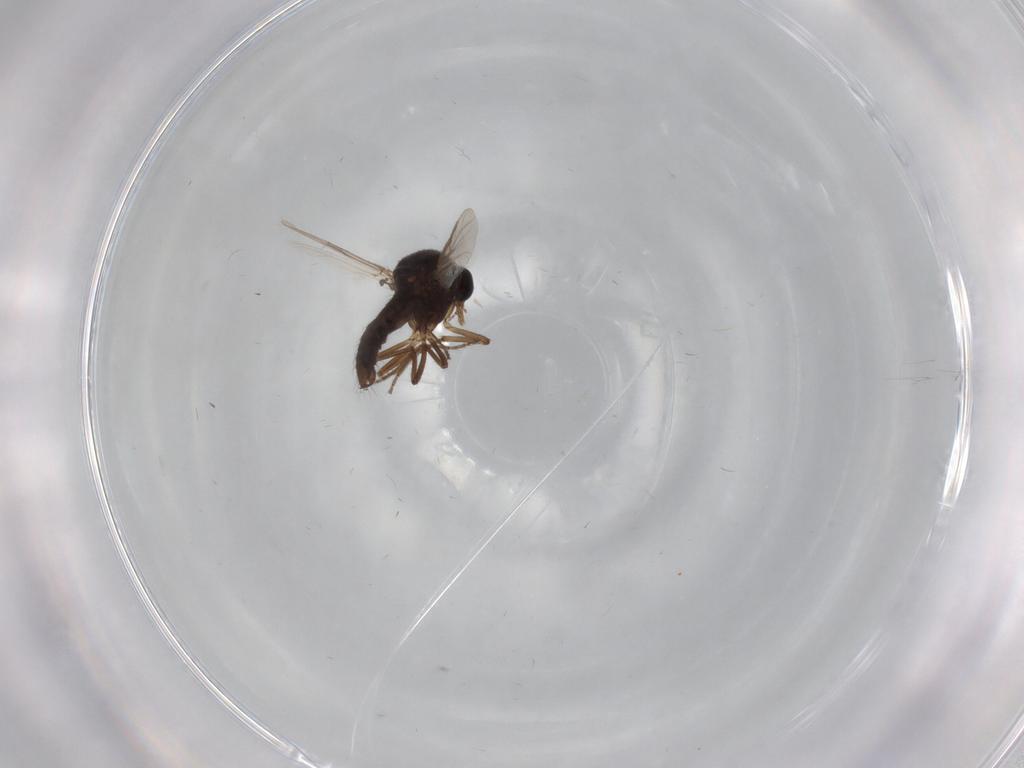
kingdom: Animalia
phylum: Arthropoda
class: Insecta
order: Diptera
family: Ceratopogonidae
